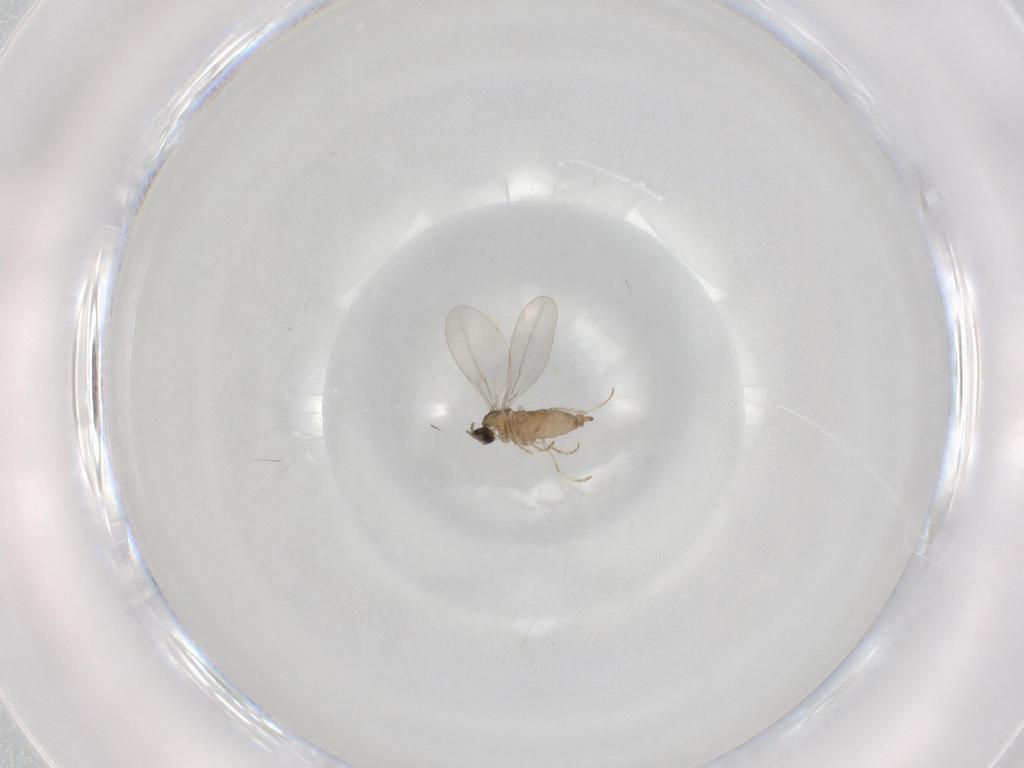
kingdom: Animalia
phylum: Arthropoda
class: Insecta
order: Diptera
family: Cecidomyiidae
